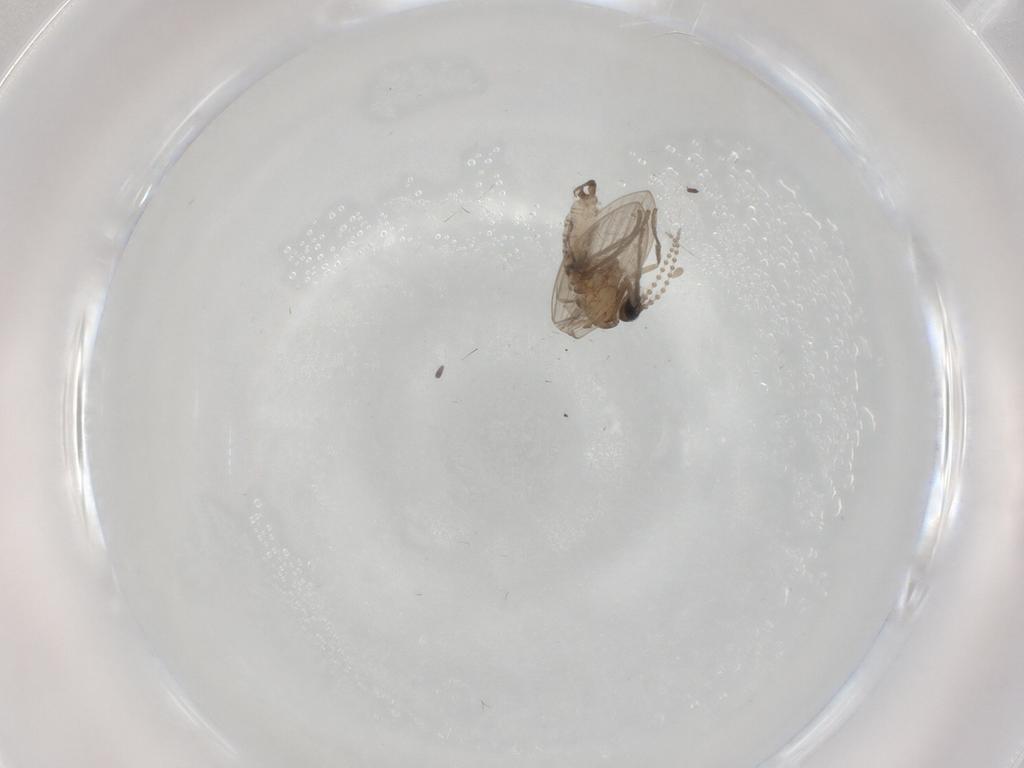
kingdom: Animalia
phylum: Arthropoda
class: Insecta
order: Diptera
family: Psychodidae
